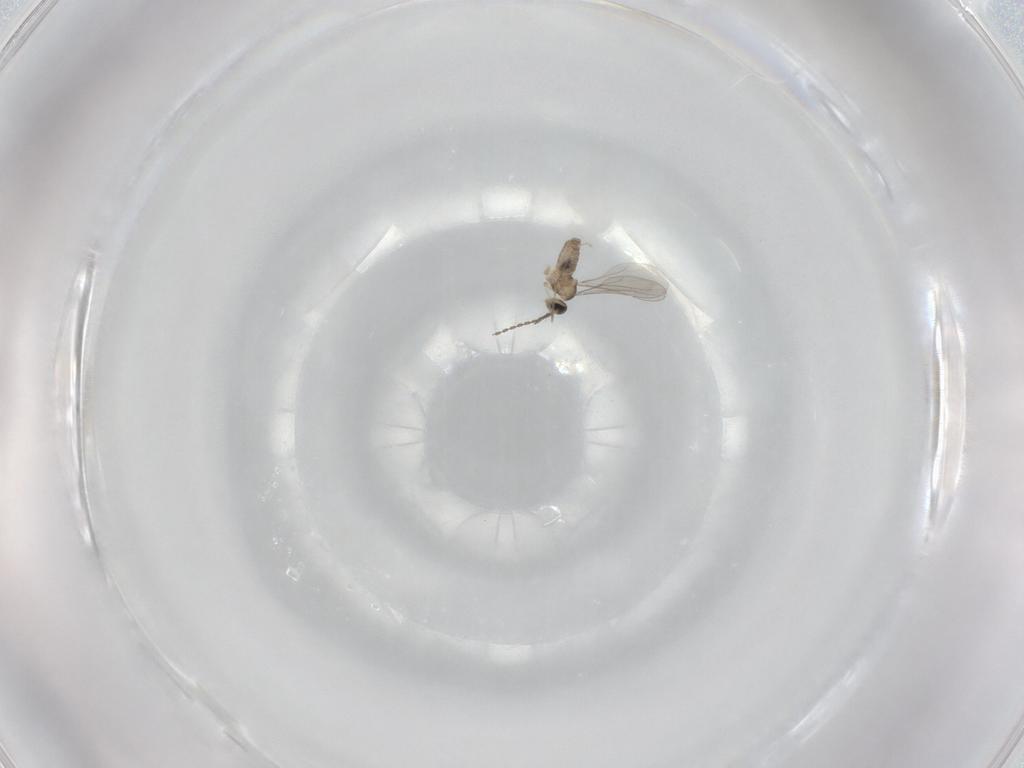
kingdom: Animalia
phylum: Arthropoda
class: Insecta
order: Diptera
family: Cecidomyiidae
